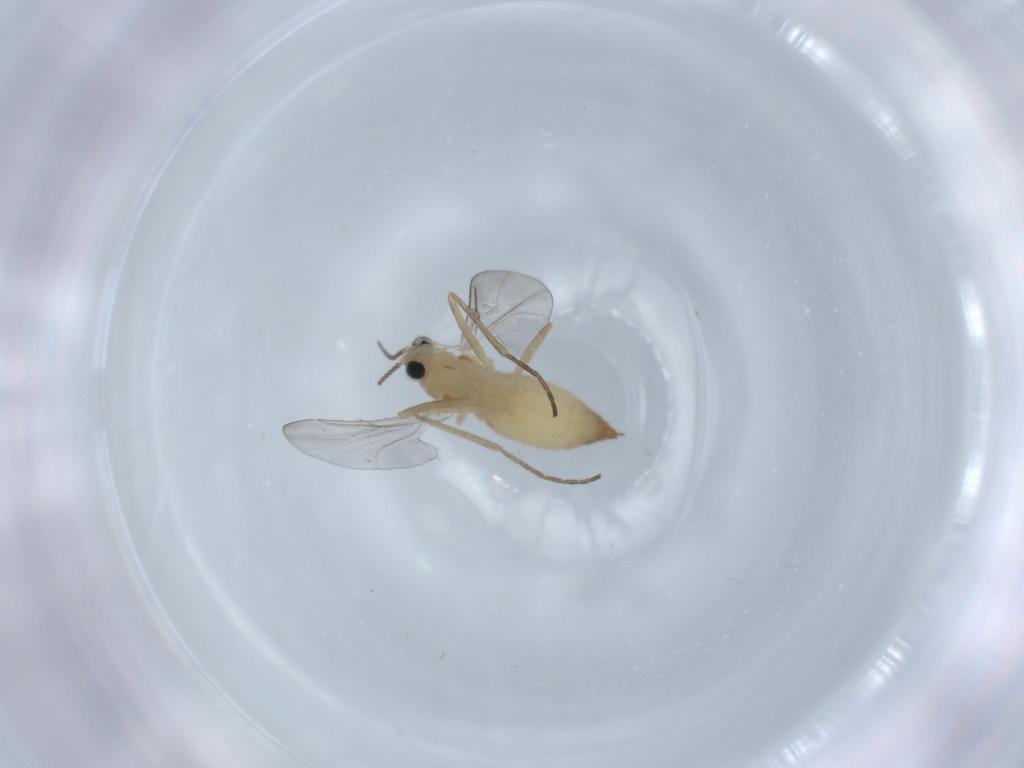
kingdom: Animalia
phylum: Arthropoda
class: Insecta
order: Diptera
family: Cecidomyiidae
